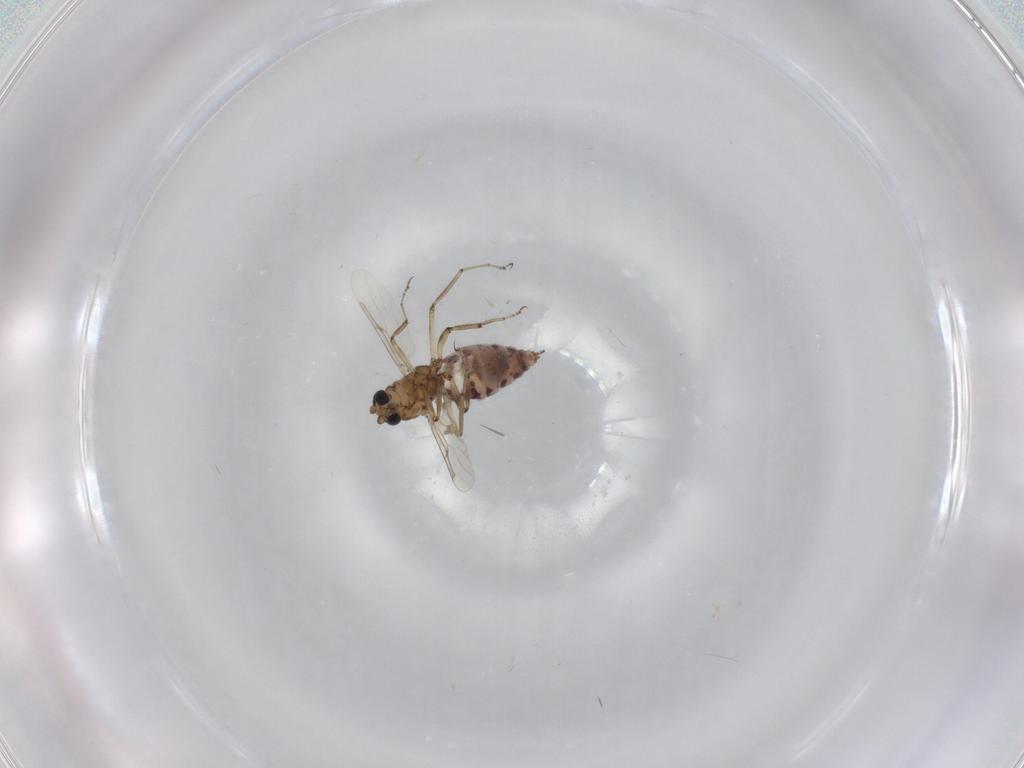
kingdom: Animalia
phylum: Arthropoda
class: Insecta
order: Diptera
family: Ceratopogonidae
